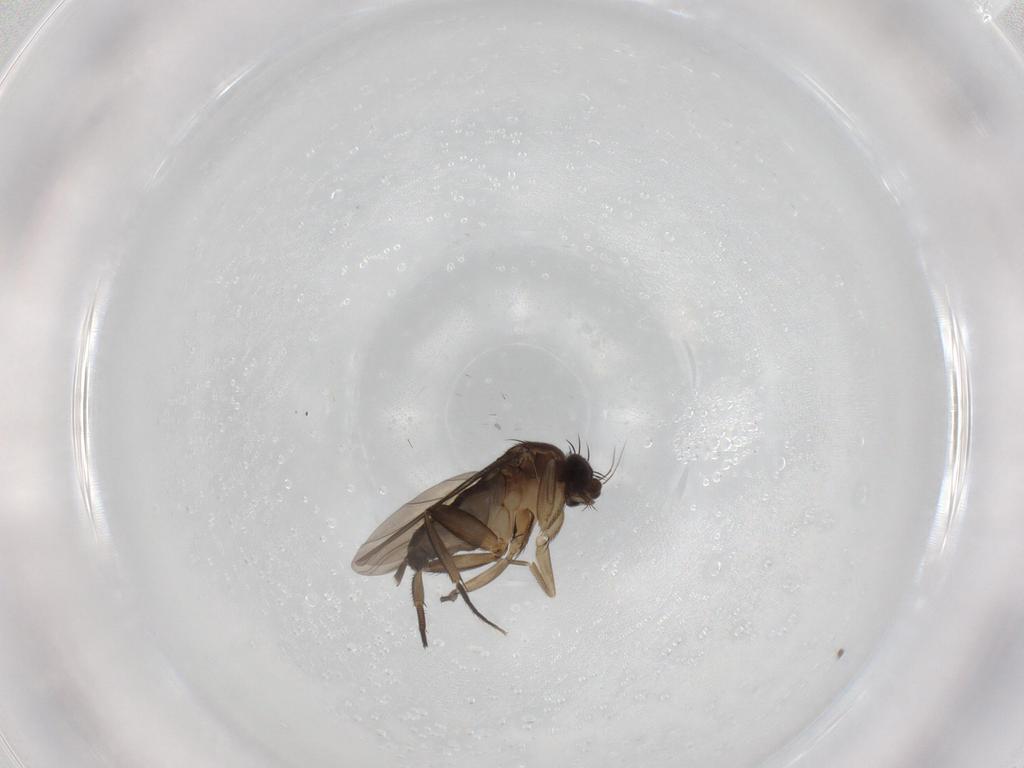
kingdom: Animalia
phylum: Arthropoda
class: Insecta
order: Diptera
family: Phoridae
